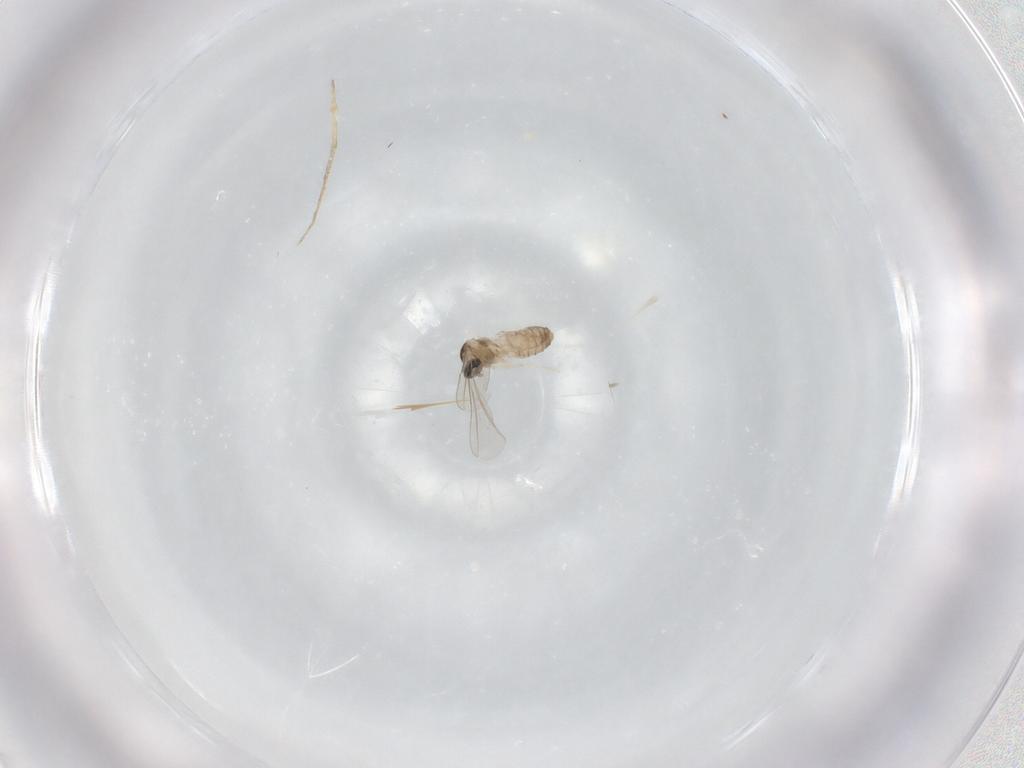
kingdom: Animalia
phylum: Arthropoda
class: Insecta
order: Diptera
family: Cecidomyiidae
